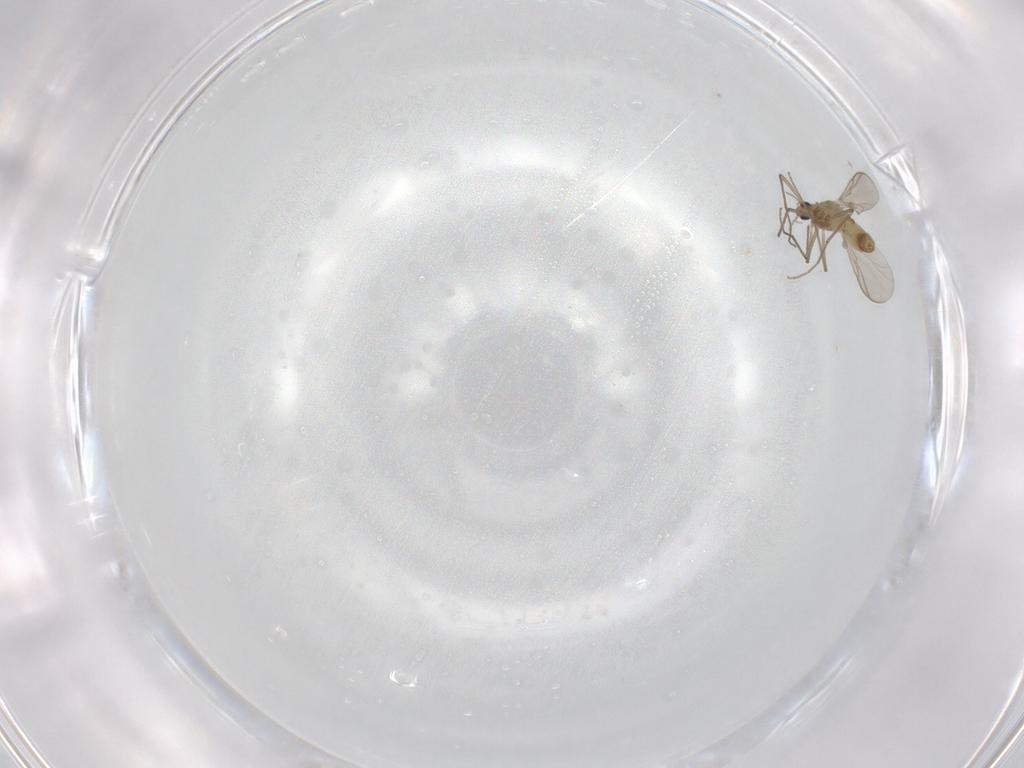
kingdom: Animalia
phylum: Arthropoda
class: Insecta
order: Diptera
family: Chironomidae
